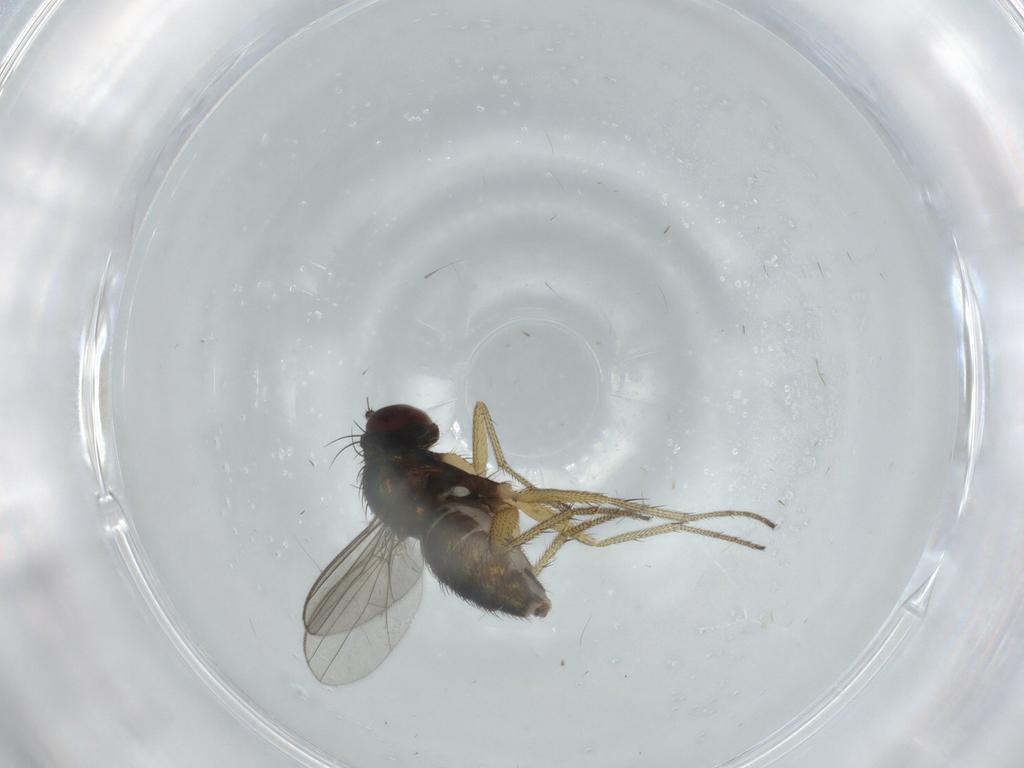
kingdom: Animalia
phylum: Arthropoda
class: Insecta
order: Diptera
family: Dolichopodidae
